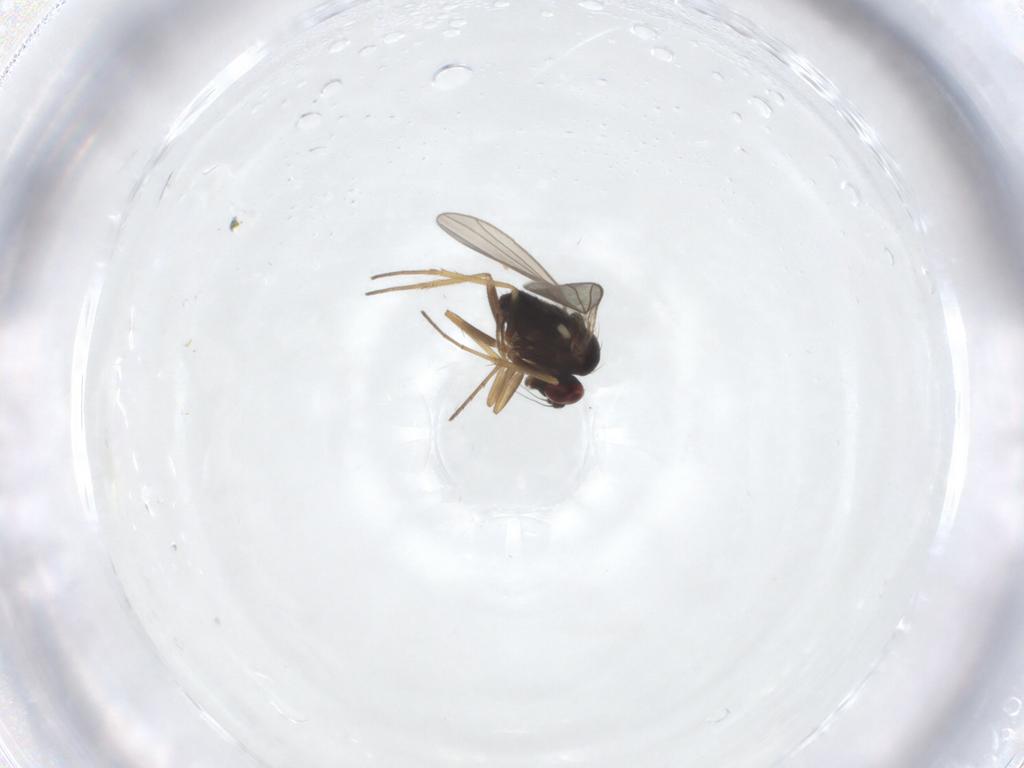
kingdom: Animalia
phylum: Arthropoda
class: Insecta
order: Diptera
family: Dolichopodidae
